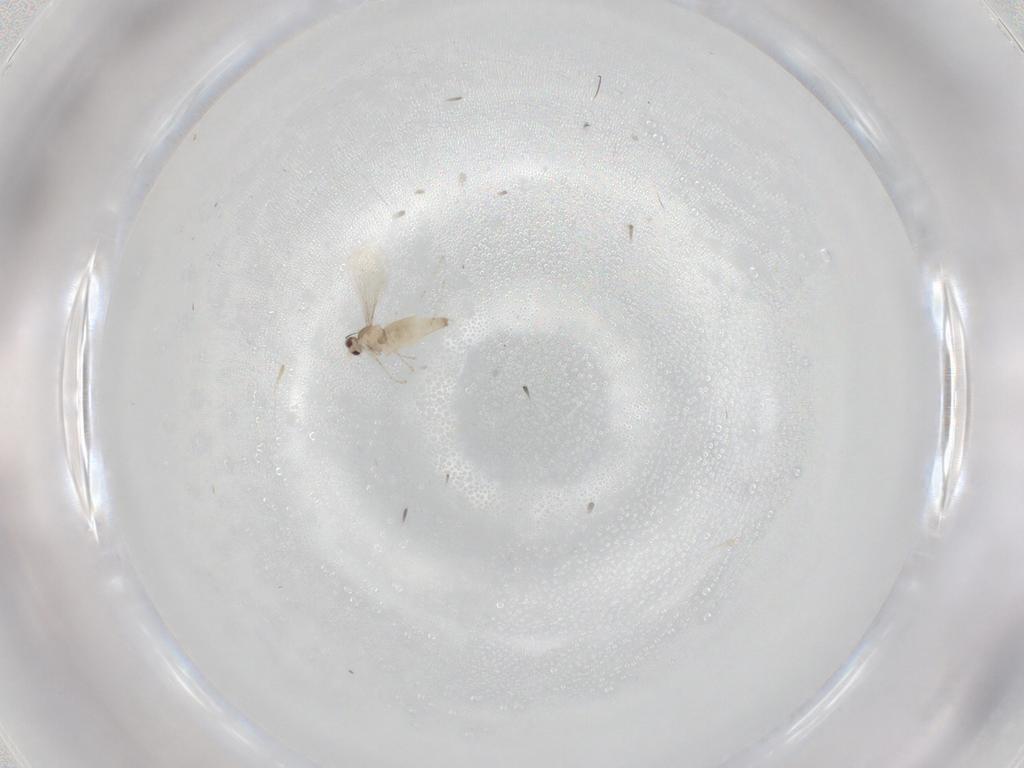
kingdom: Animalia
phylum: Arthropoda
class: Insecta
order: Diptera
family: Cecidomyiidae
